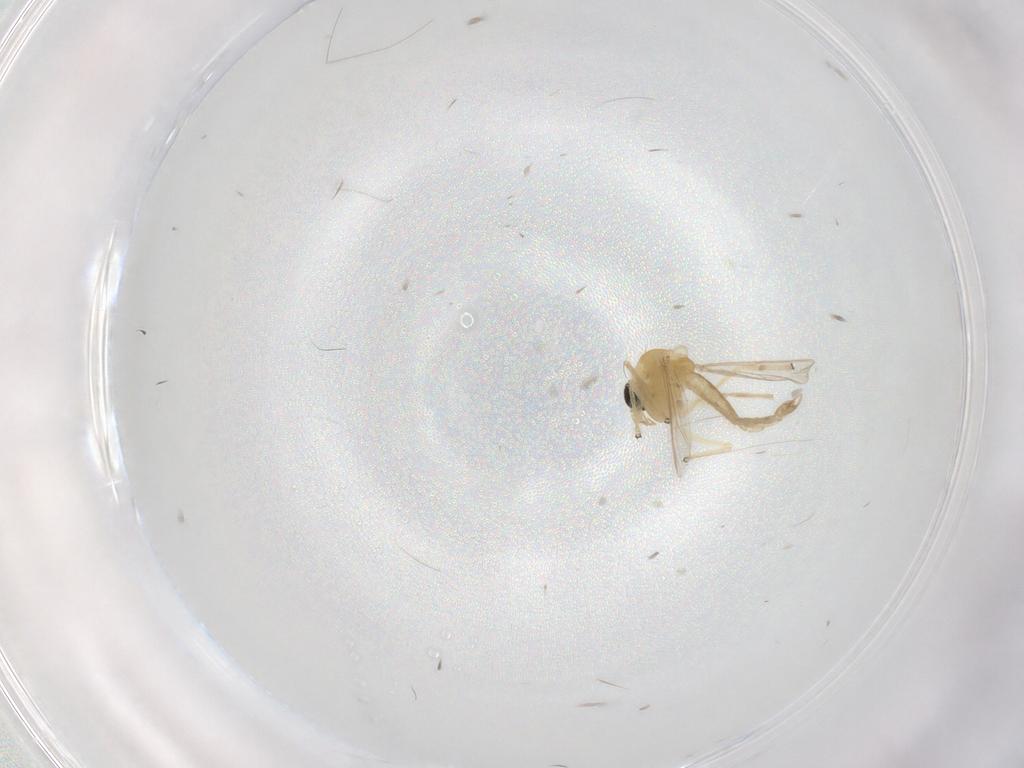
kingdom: Animalia
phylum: Arthropoda
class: Insecta
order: Diptera
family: Chironomidae
